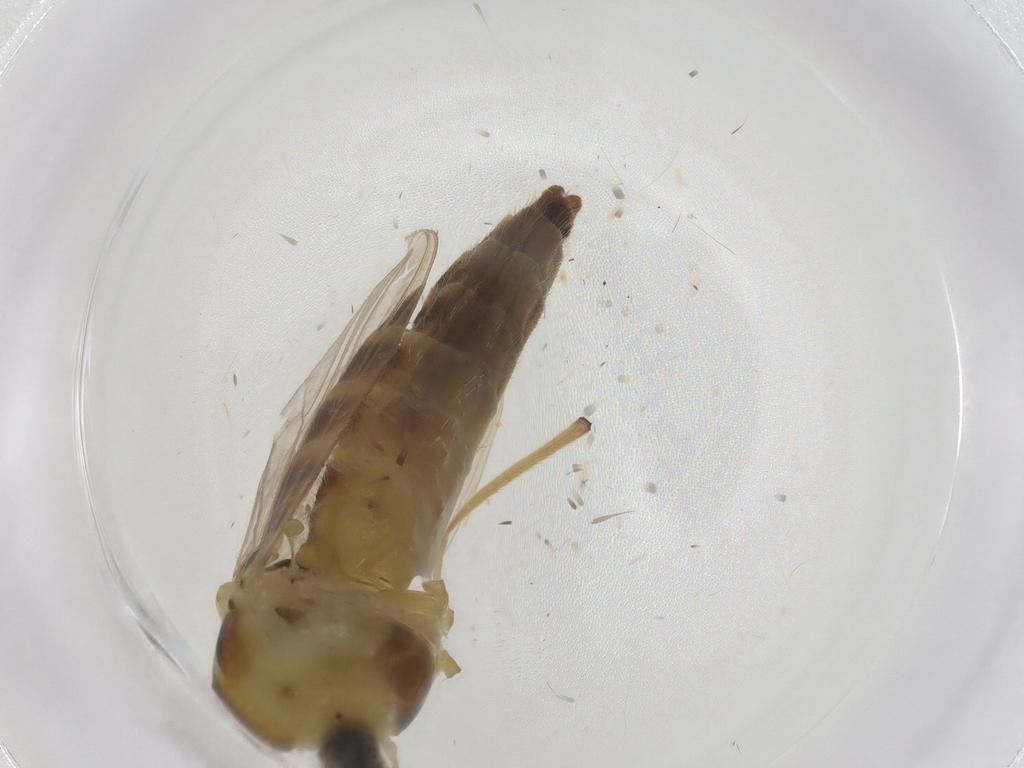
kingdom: Animalia
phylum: Arthropoda
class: Insecta
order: Diptera
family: Chironomidae
